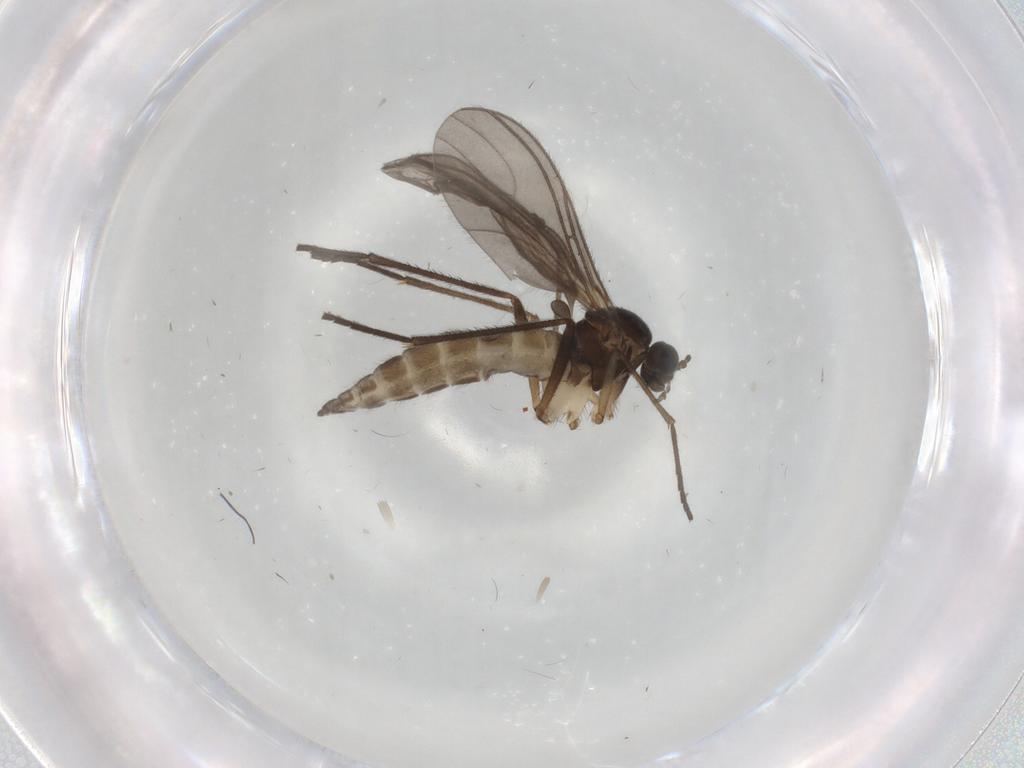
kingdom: Animalia
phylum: Arthropoda
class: Insecta
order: Diptera
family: Sciaridae
